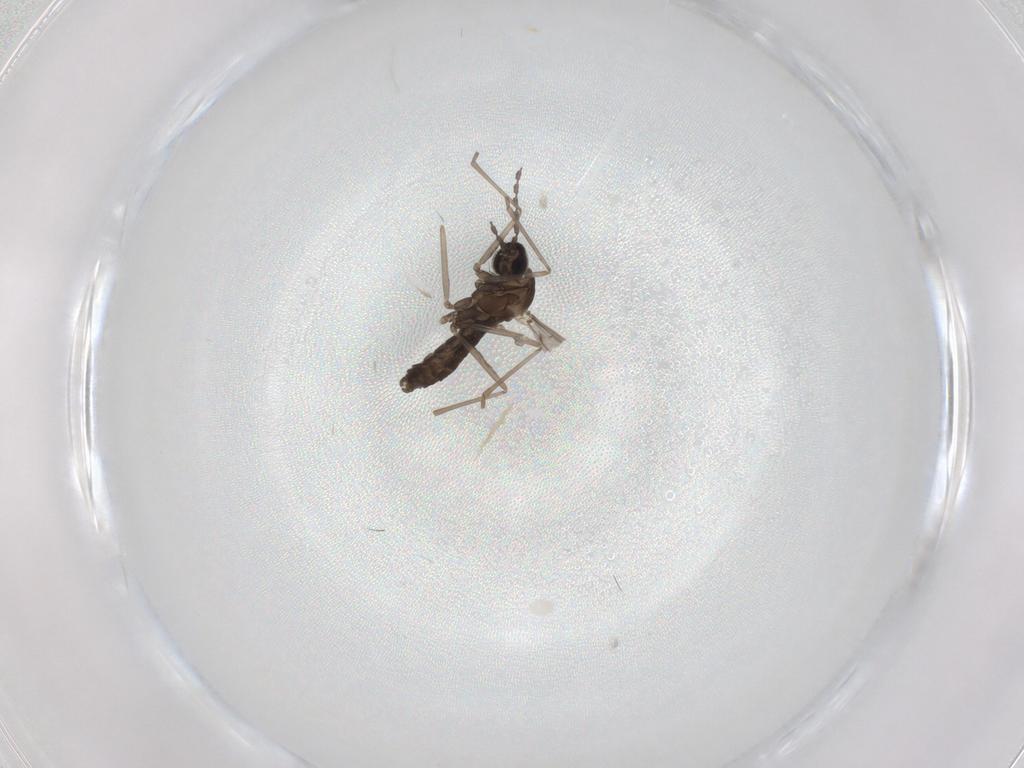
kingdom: Animalia
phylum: Arthropoda
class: Insecta
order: Diptera
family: Cecidomyiidae
